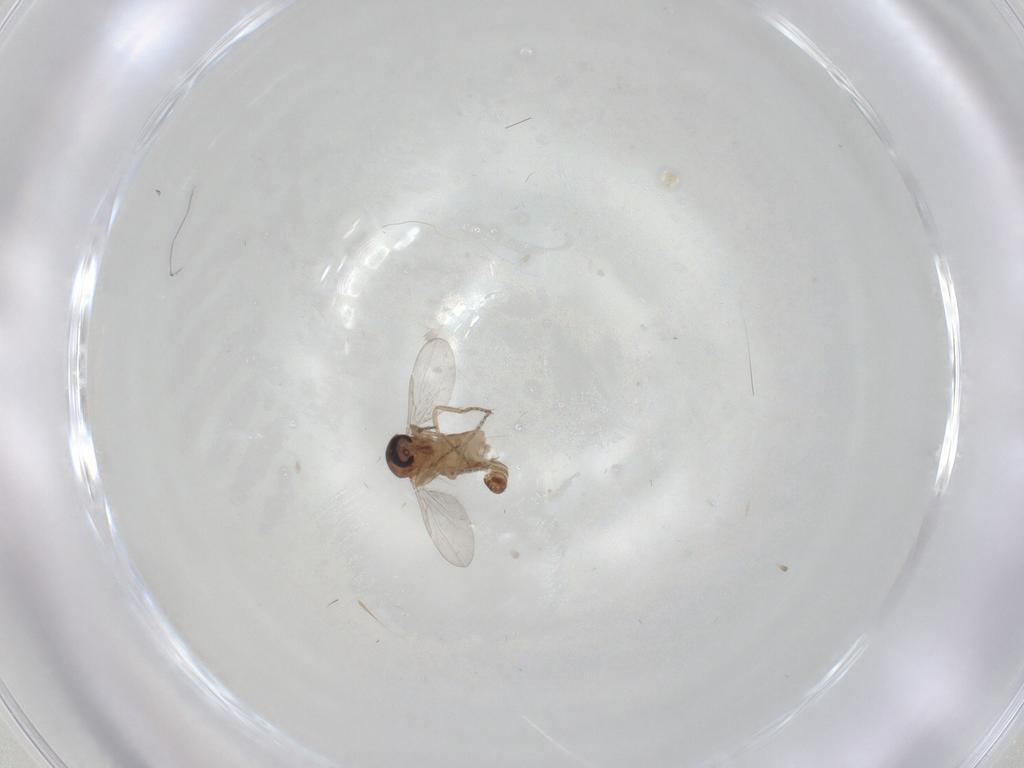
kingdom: Animalia
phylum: Arthropoda
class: Insecta
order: Diptera
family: Ceratopogonidae
